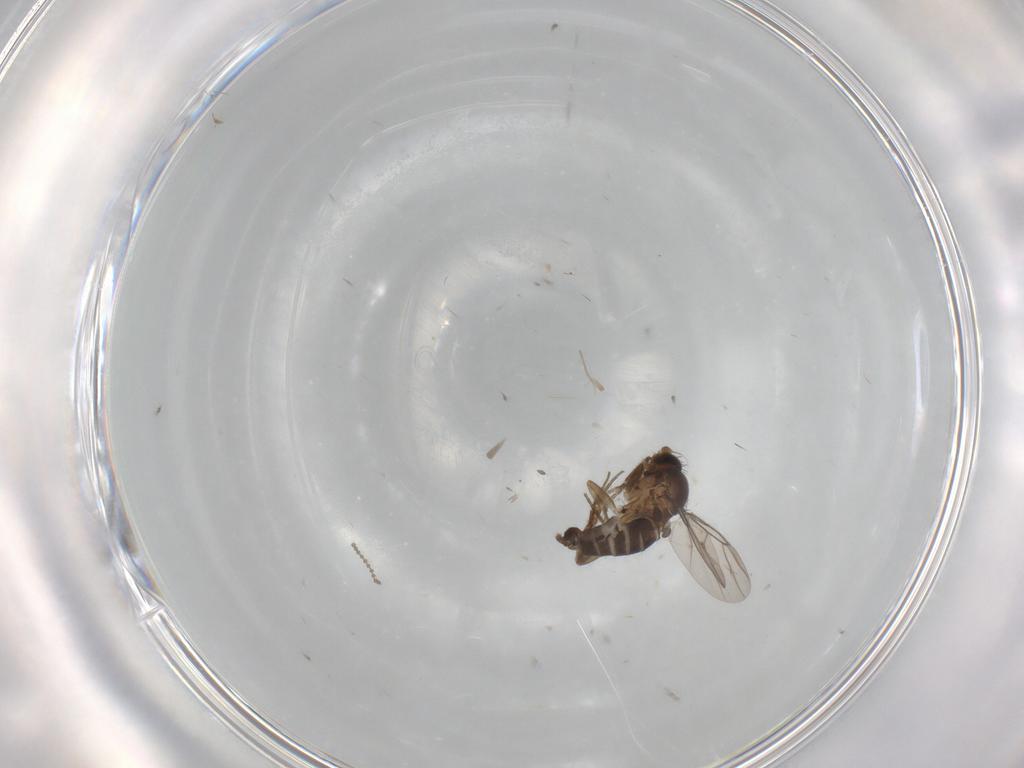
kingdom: Animalia
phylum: Arthropoda
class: Insecta
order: Diptera
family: Phoridae
